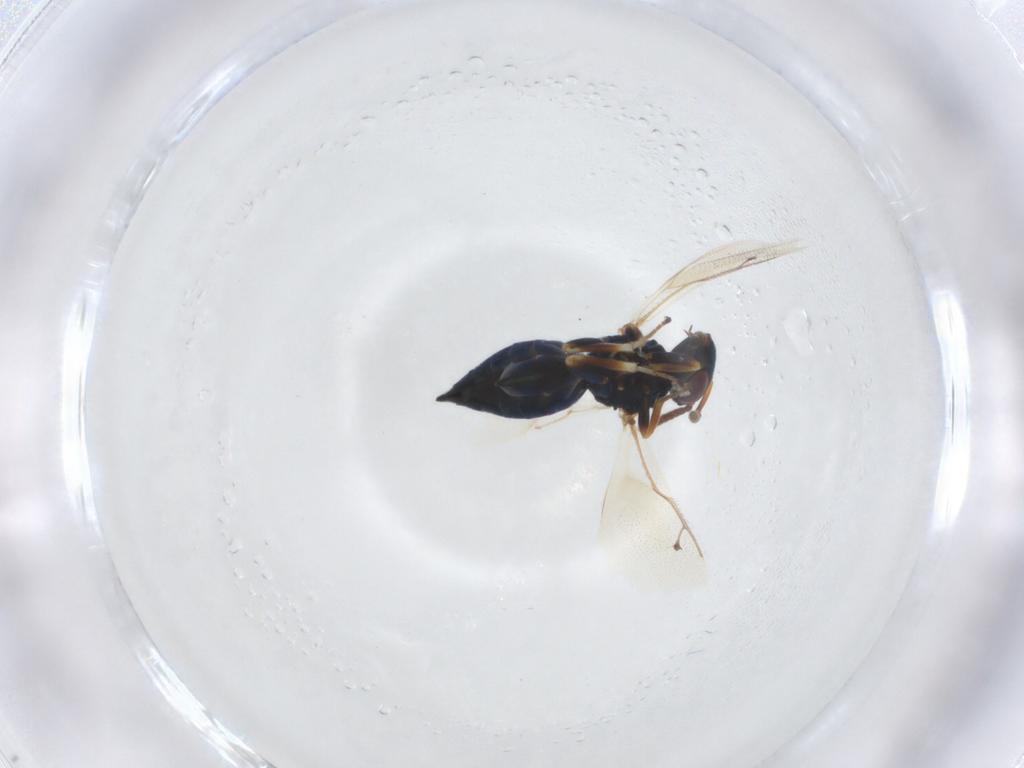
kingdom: Animalia
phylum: Arthropoda
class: Insecta
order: Hymenoptera
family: Pteromalidae
